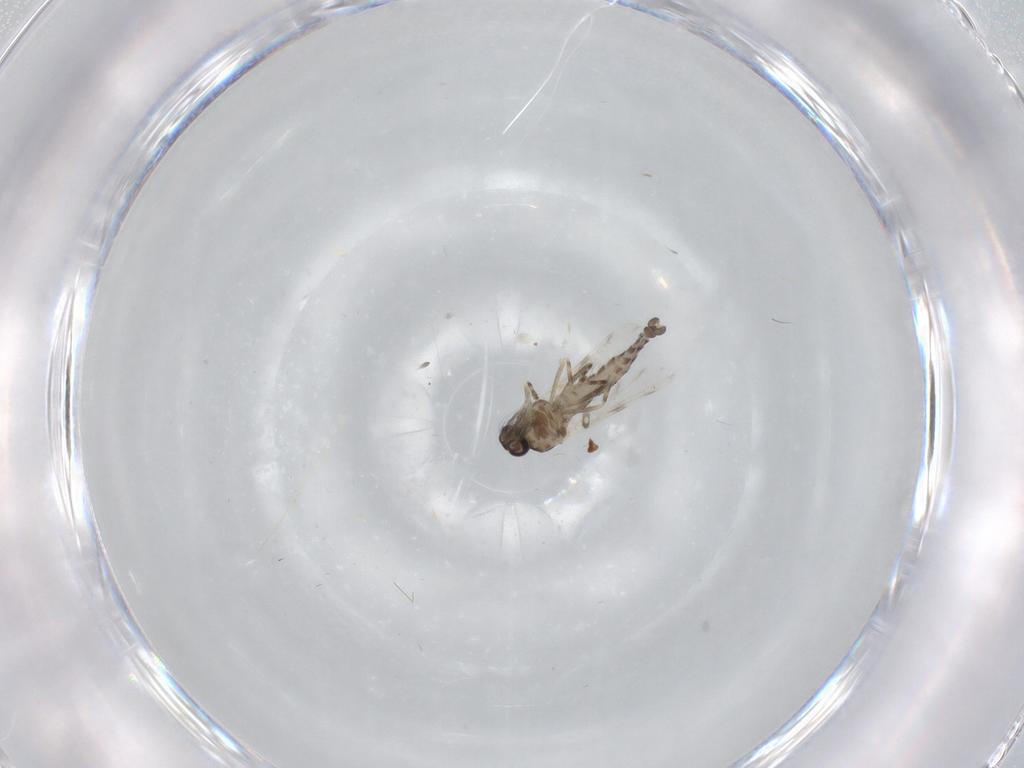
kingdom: Animalia
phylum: Arthropoda
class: Insecta
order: Diptera
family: Ceratopogonidae
